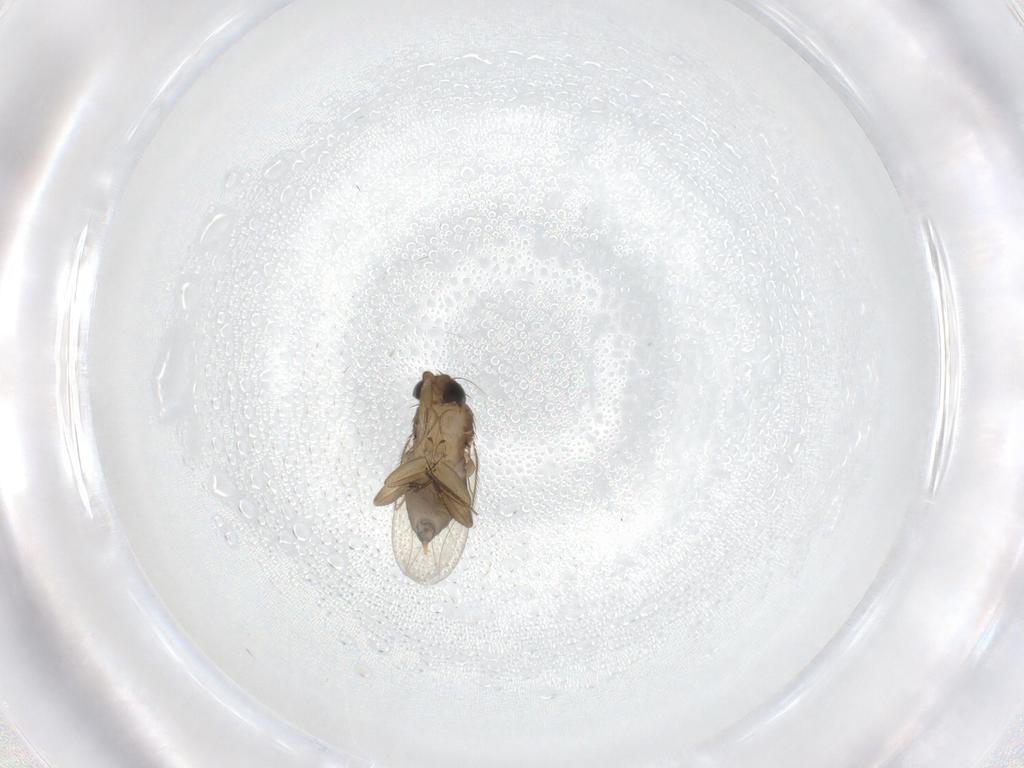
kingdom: Animalia
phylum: Arthropoda
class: Insecta
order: Diptera
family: Phoridae
